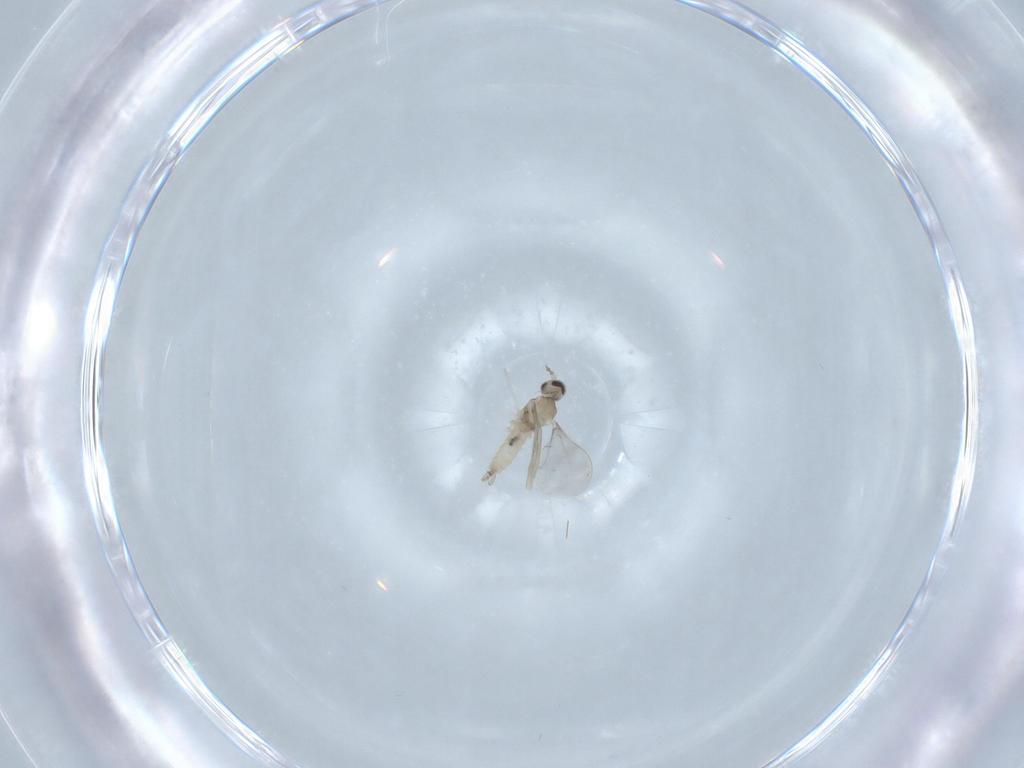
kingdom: Animalia
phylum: Arthropoda
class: Insecta
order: Diptera
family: Cecidomyiidae
